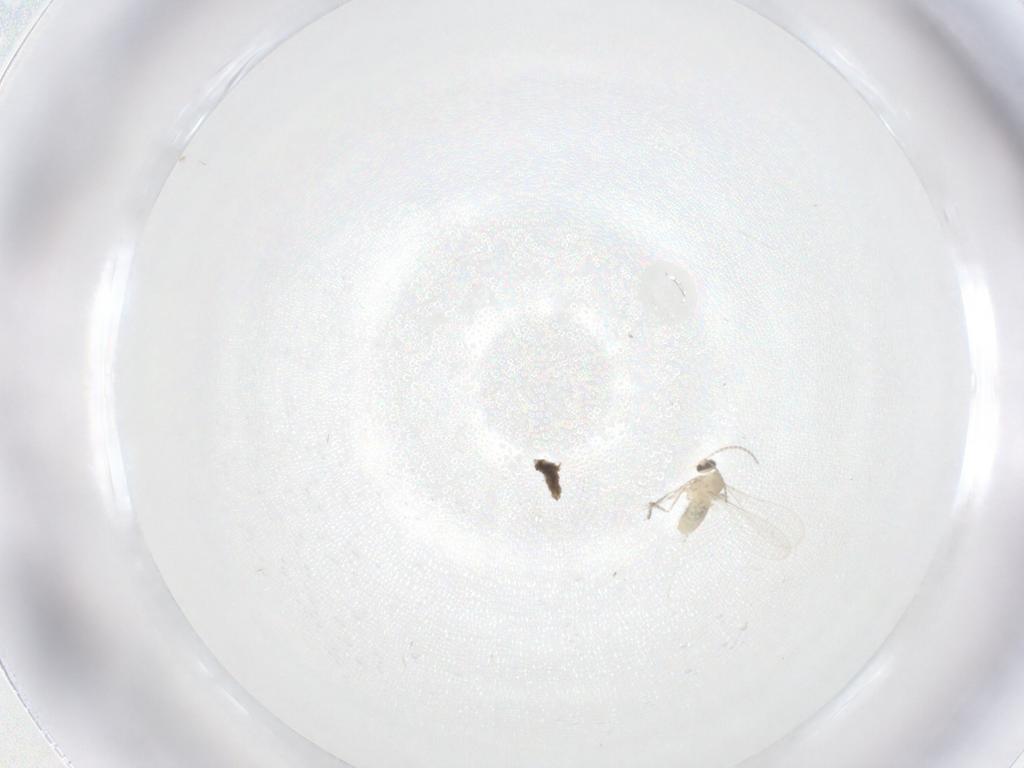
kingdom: Animalia
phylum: Arthropoda
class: Insecta
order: Diptera
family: Cecidomyiidae
